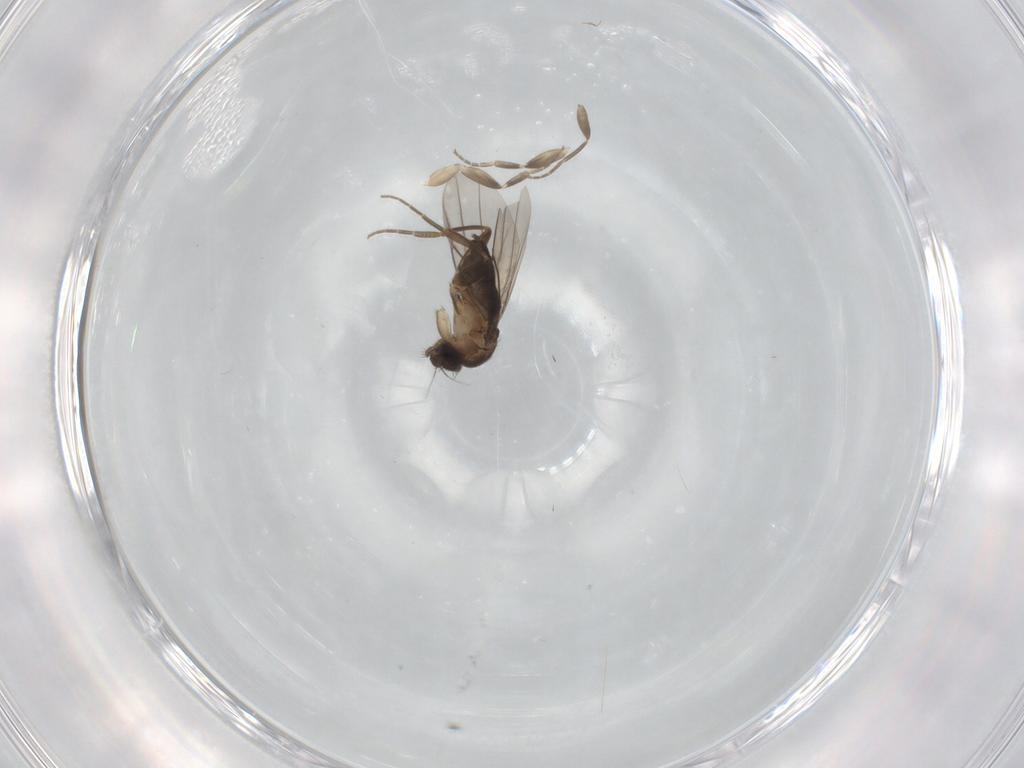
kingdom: Animalia
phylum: Arthropoda
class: Insecta
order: Diptera
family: Phoridae
